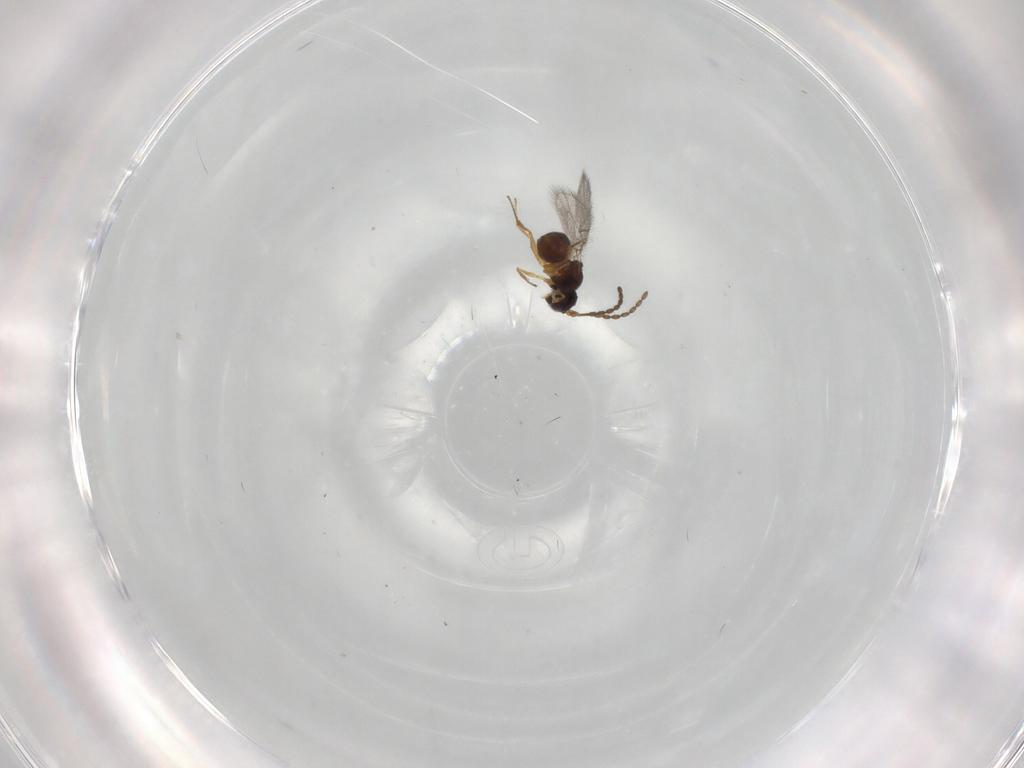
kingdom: Animalia
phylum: Arthropoda
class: Insecta
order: Hymenoptera
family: Figitidae
